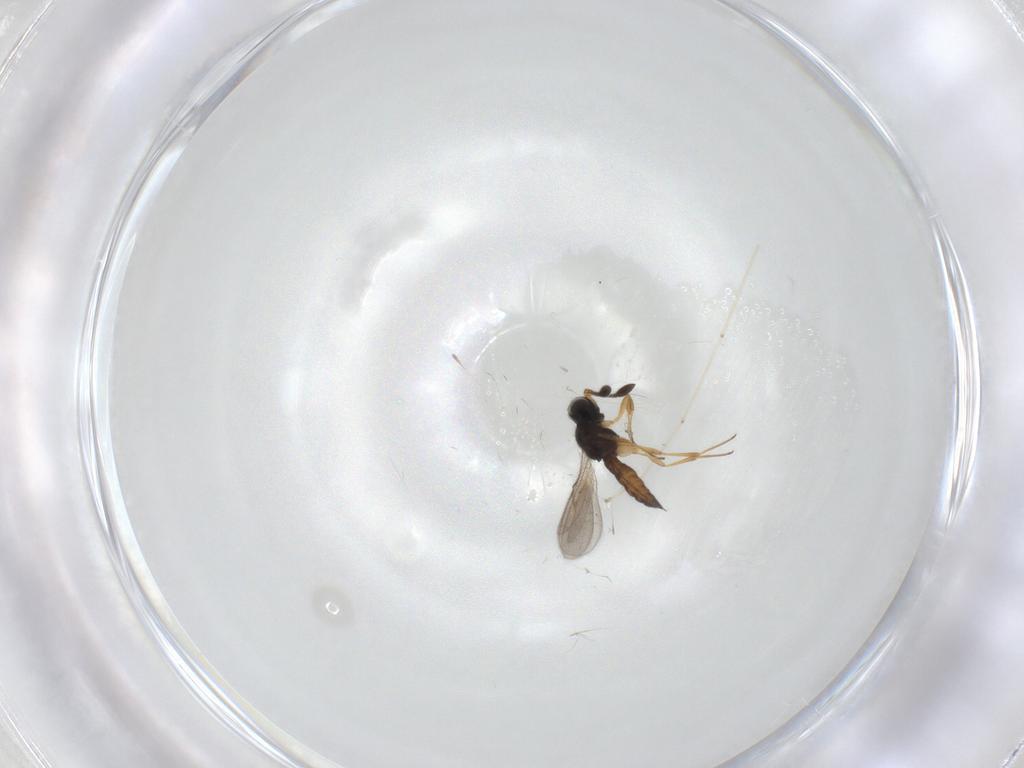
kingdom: Animalia
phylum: Arthropoda
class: Insecta
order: Hymenoptera
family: Scelionidae
